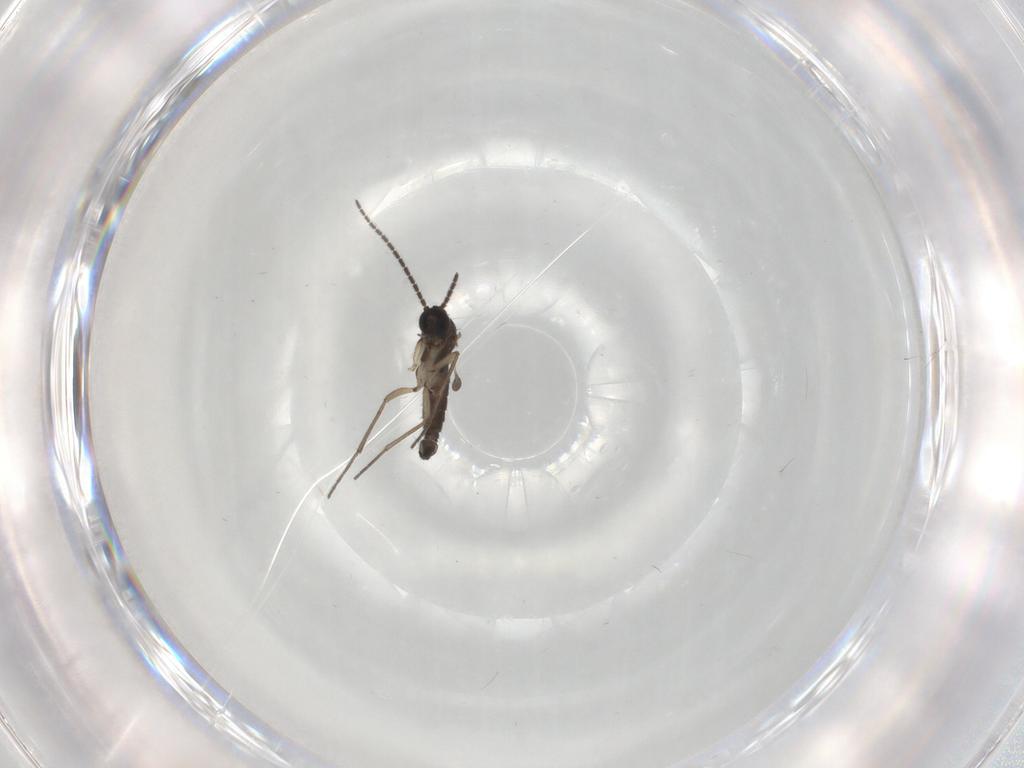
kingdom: Animalia
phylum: Arthropoda
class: Insecta
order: Diptera
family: Sciaridae
